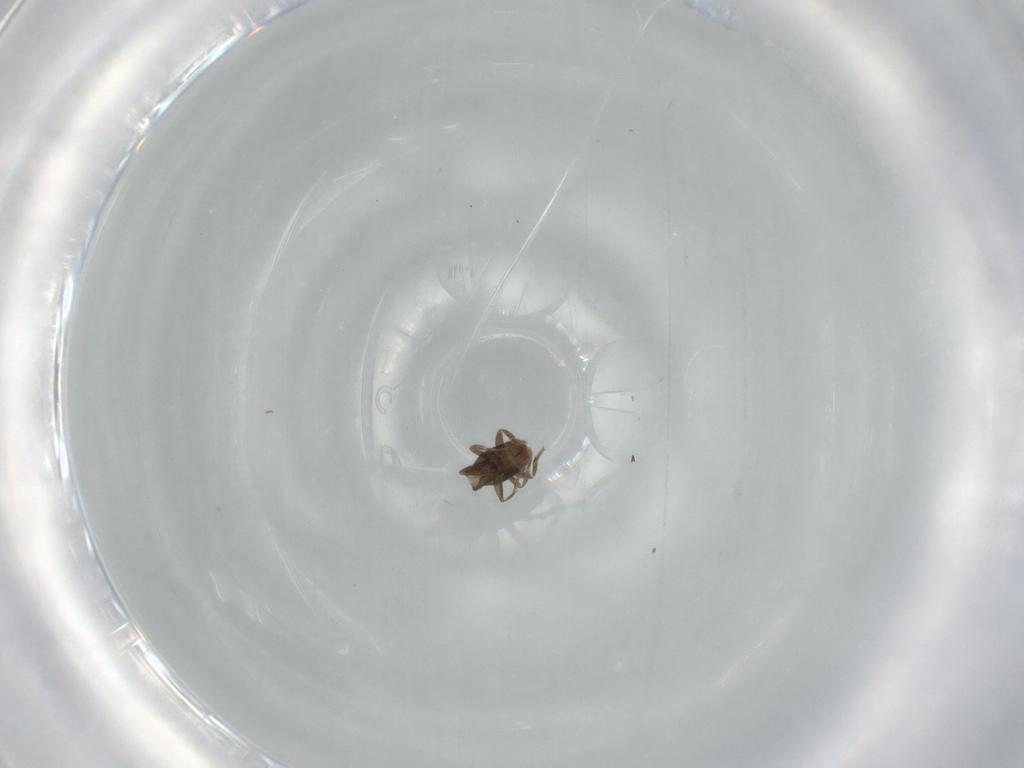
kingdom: Animalia
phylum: Arthropoda
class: Insecta
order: Diptera
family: Phoridae
